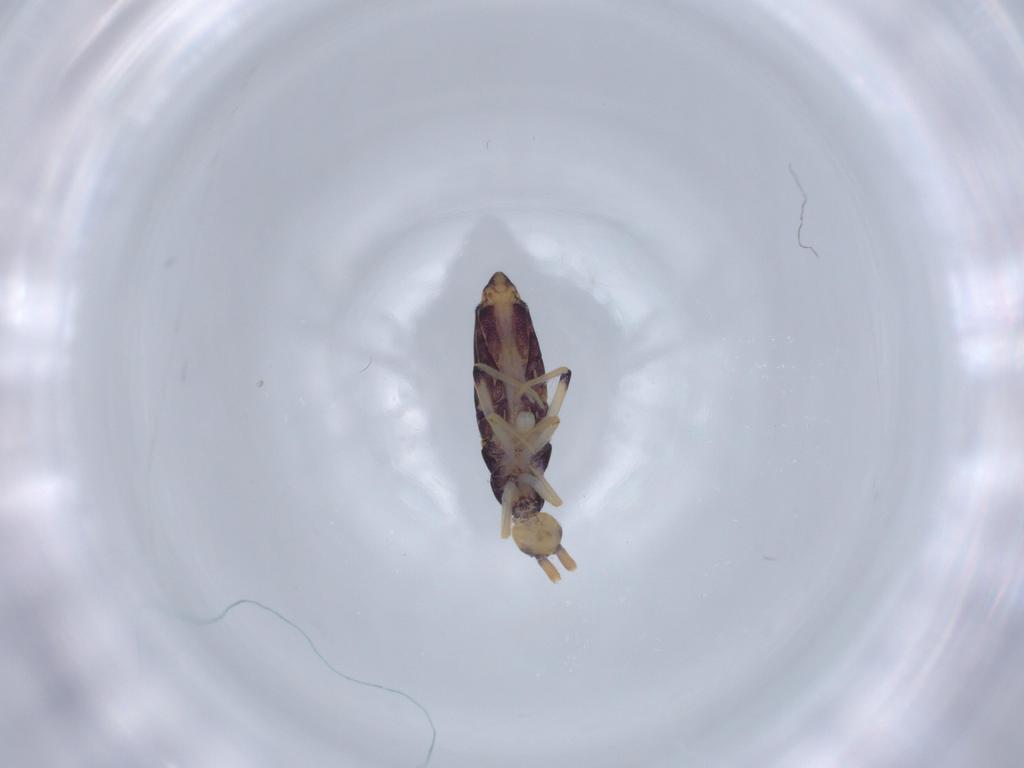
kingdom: Animalia
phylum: Arthropoda
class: Collembola
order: Entomobryomorpha
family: Entomobryidae
